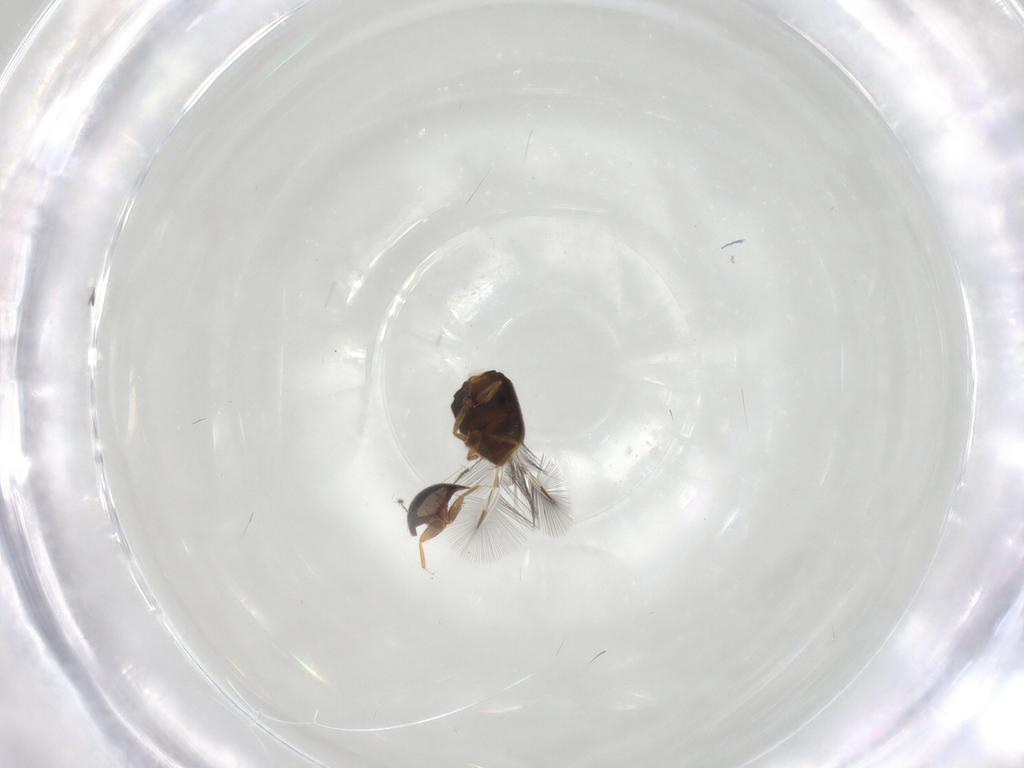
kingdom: Animalia
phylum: Arthropoda
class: Insecta
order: Coleoptera
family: Ptiliidae
